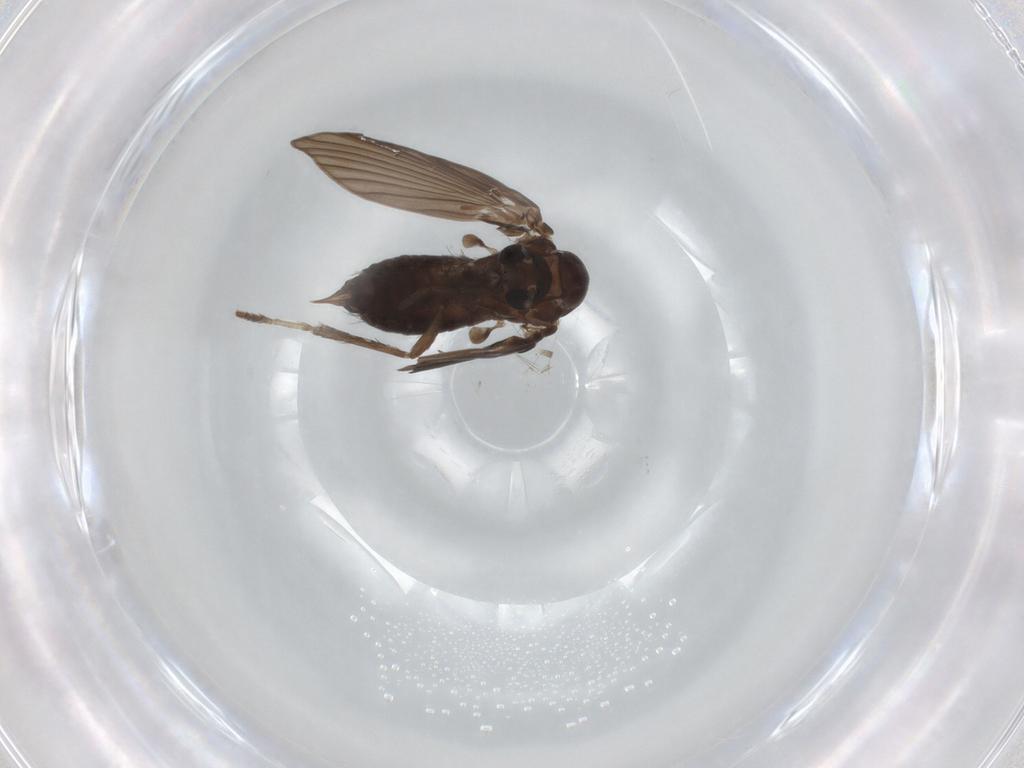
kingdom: Animalia
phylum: Arthropoda
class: Insecta
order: Diptera
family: Psychodidae
